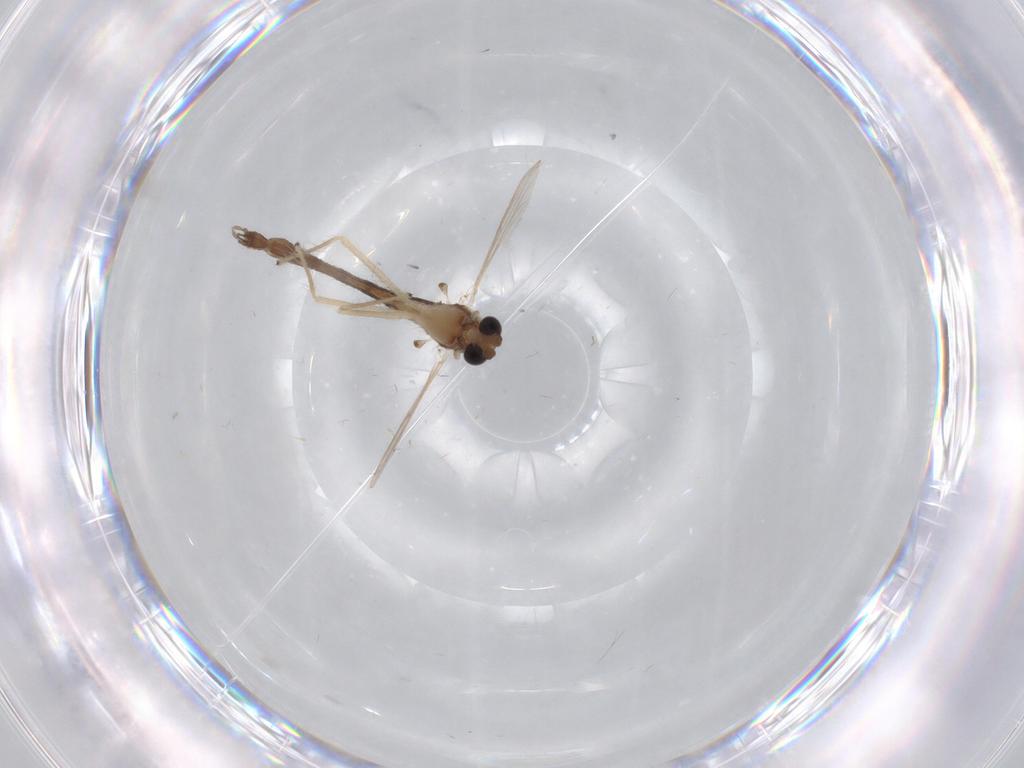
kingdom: Animalia
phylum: Arthropoda
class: Insecta
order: Diptera
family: Chironomidae
